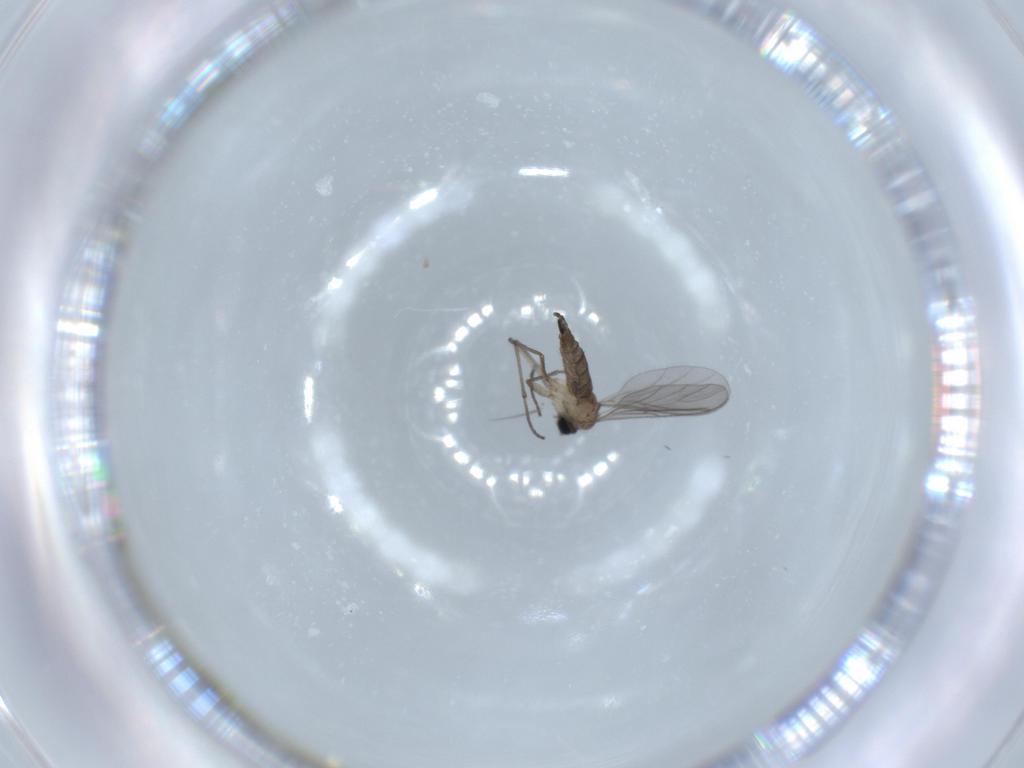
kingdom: Animalia
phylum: Arthropoda
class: Insecta
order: Diptera
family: Sciaridae
